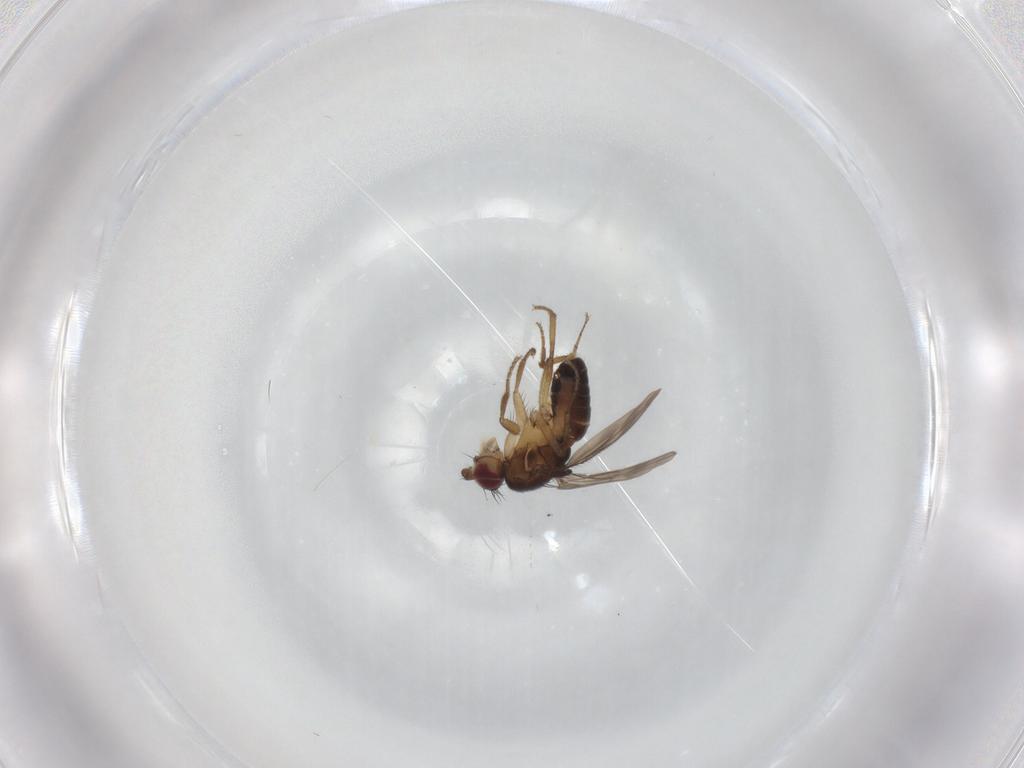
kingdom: Animalia
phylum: Arthropoda
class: Insecta
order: Diptera
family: Sphaeroceridae
